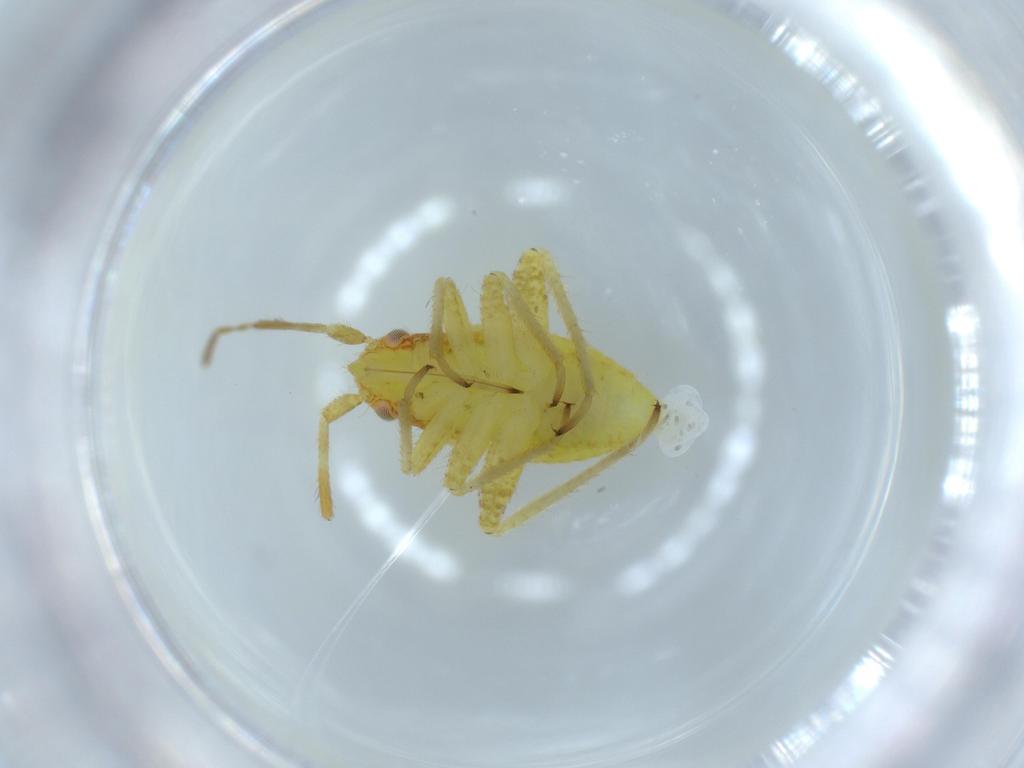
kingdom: Animalia
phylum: Arthropoda
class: Insecta
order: Hemiptera
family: Miridae
